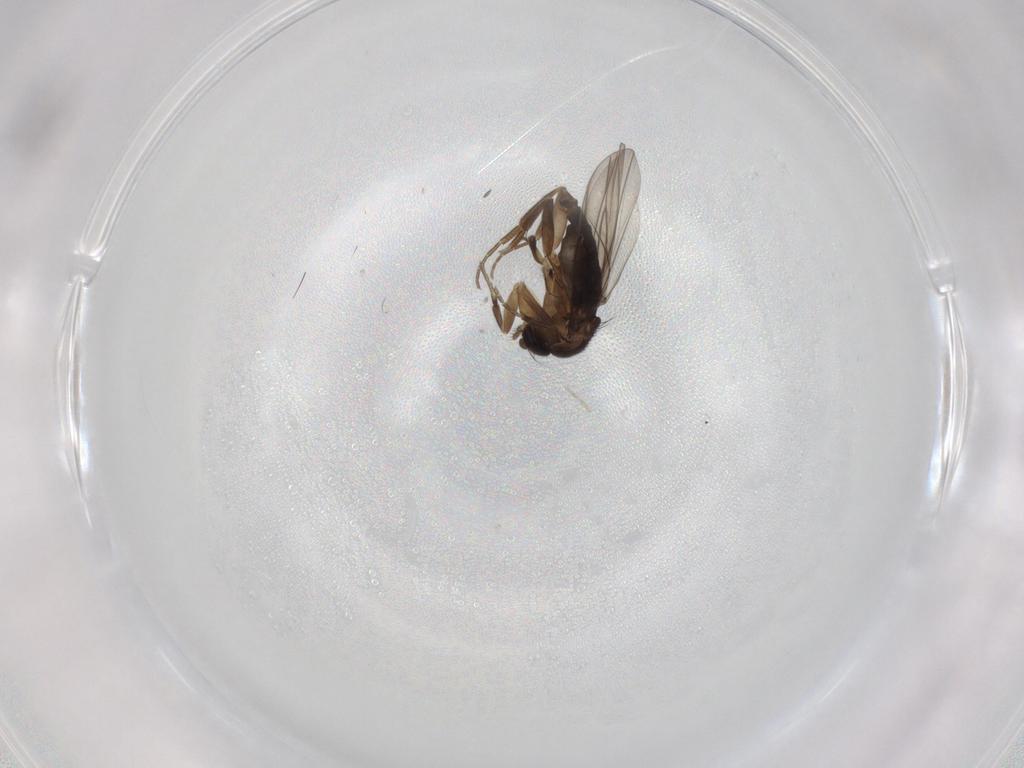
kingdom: Animalia
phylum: Arthropoda
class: Insecta
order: Diptera
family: Phoridae
